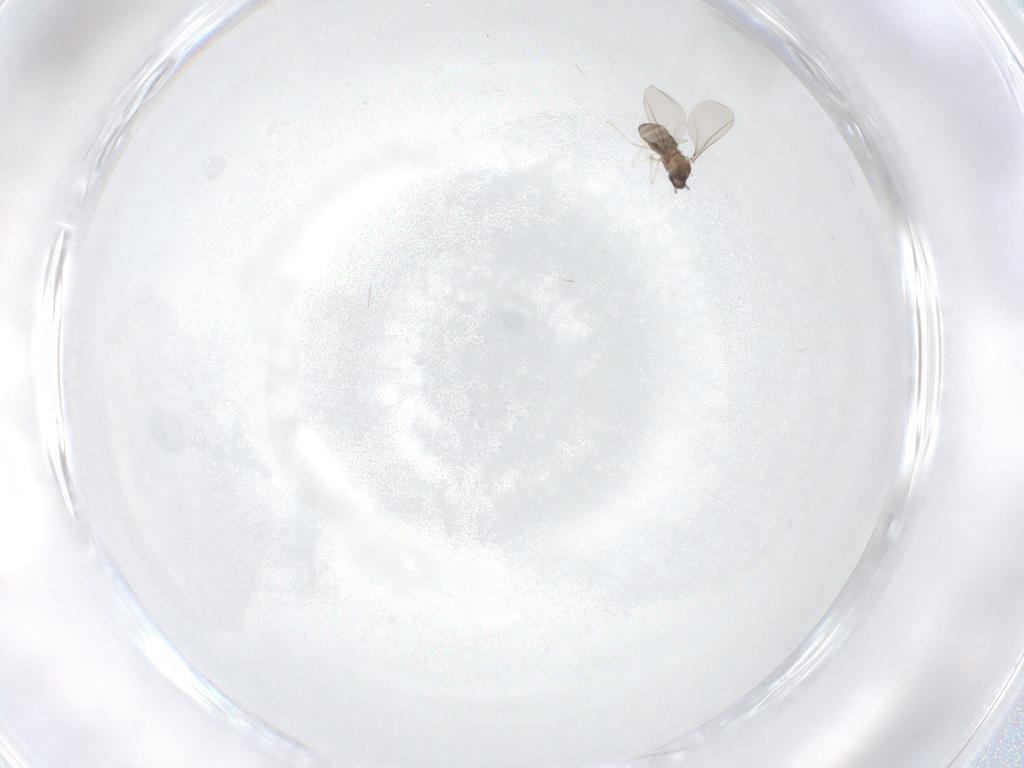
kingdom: Animalia
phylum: Arthropoda
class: Insecta
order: Diptera
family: Cecidomyiidae
